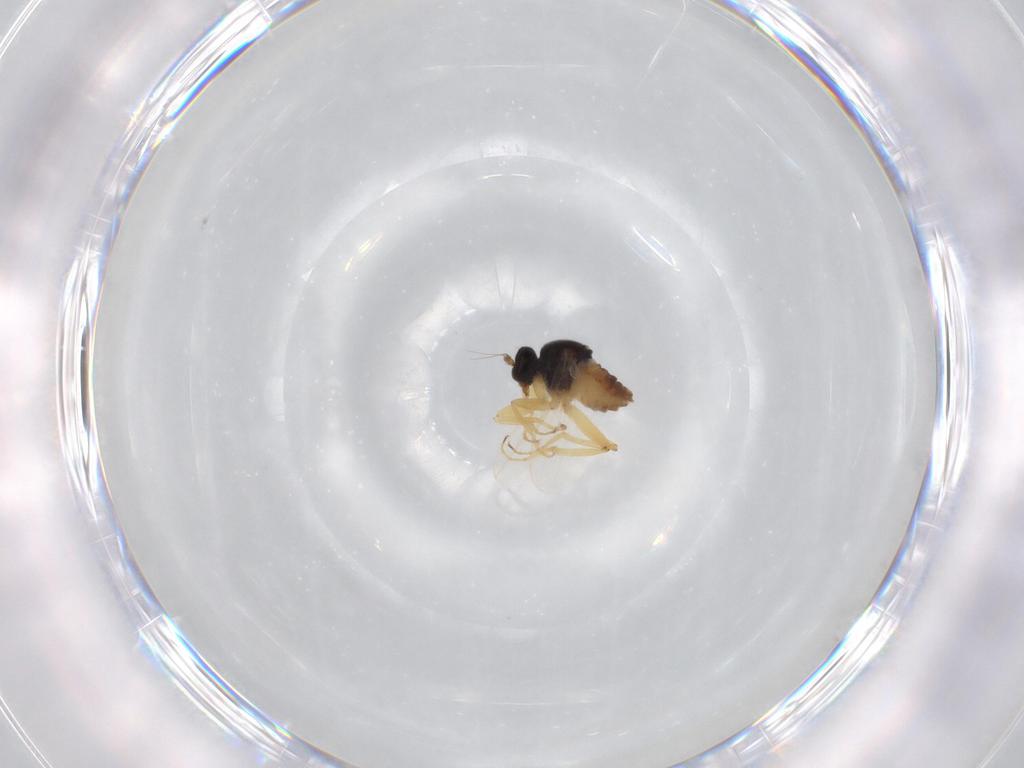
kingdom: Animalia
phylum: Arthropoda
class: Insecta
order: Diptera
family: Hybotidae
